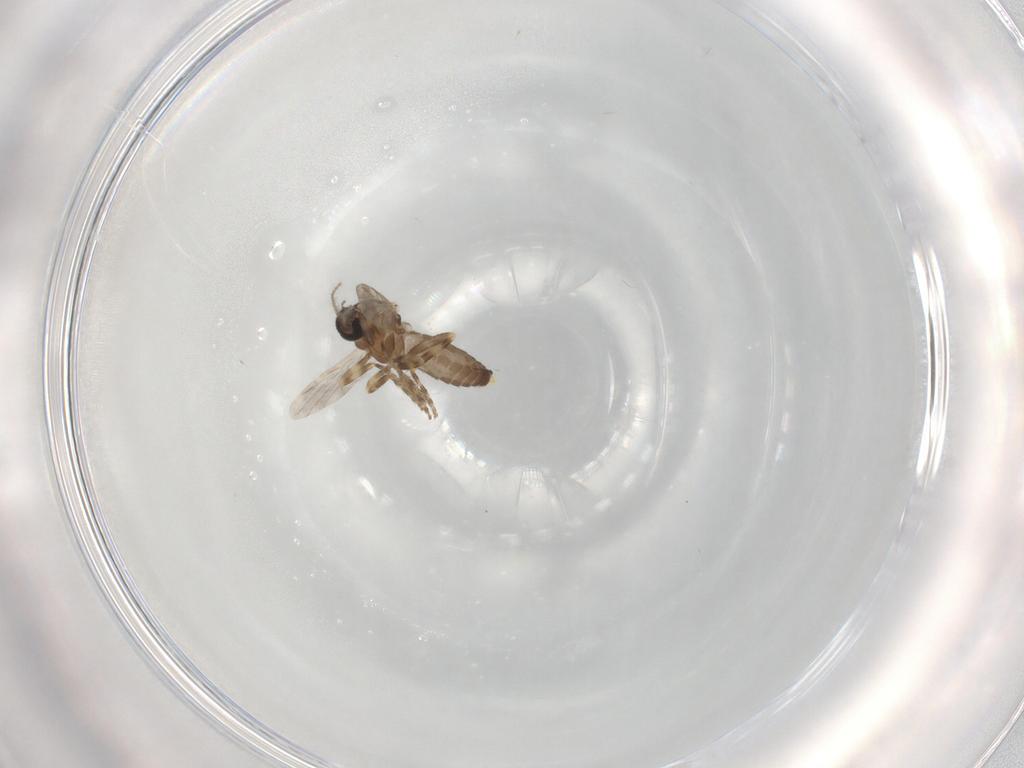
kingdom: Animalia
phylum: Arthropoda
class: Insecta
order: Diptera
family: Ceratopogonidae
